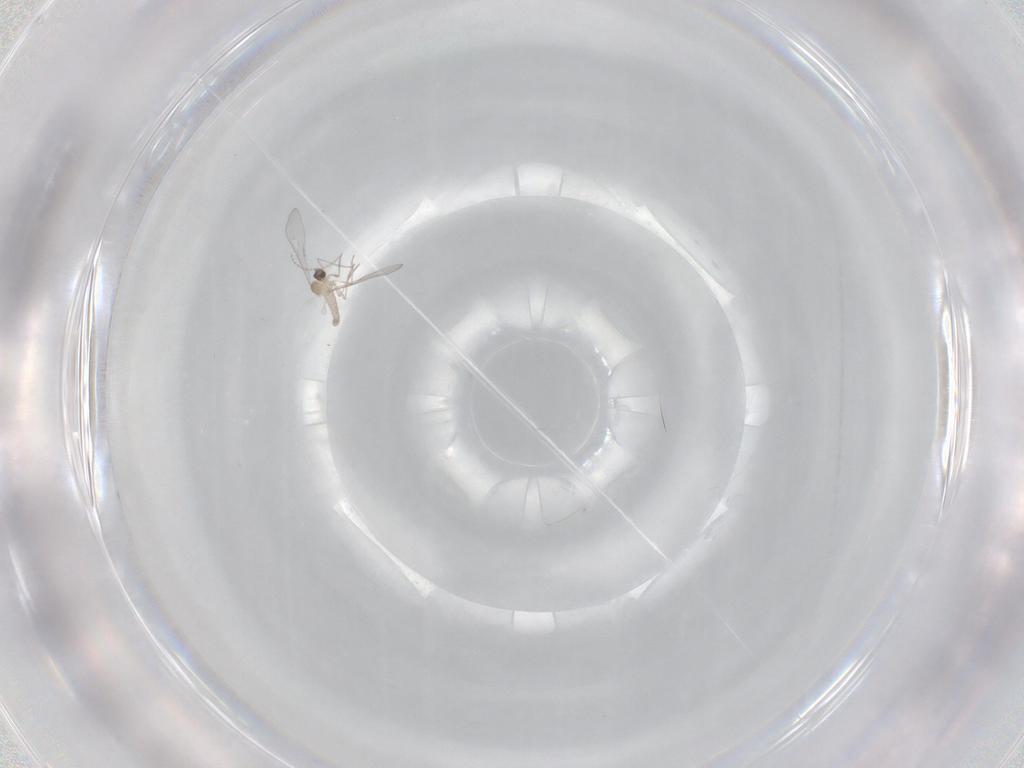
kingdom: Animalia
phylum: Arthropoda
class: Insecta
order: Diptera
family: Cecidomyiidae
